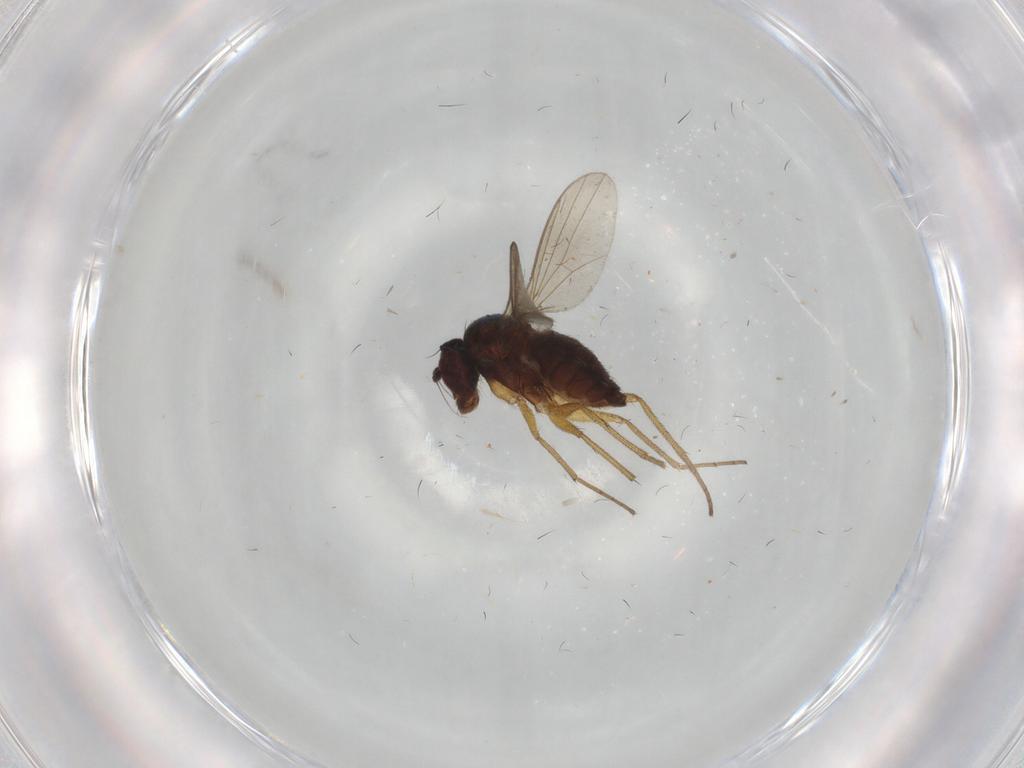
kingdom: Animalia
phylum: Arthropoda
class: Insecta
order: Diptera
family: Dolichopodidae
